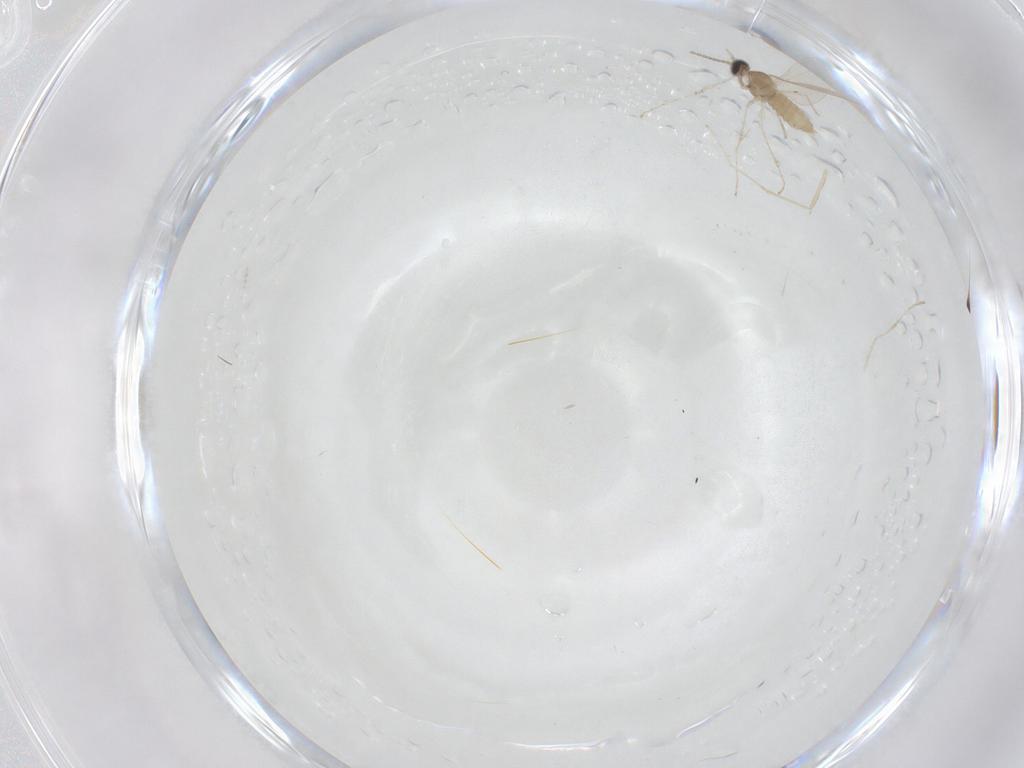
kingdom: Animalia
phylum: Arthropoda
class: Insecta
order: Diptera
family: Cecidomyiidae
